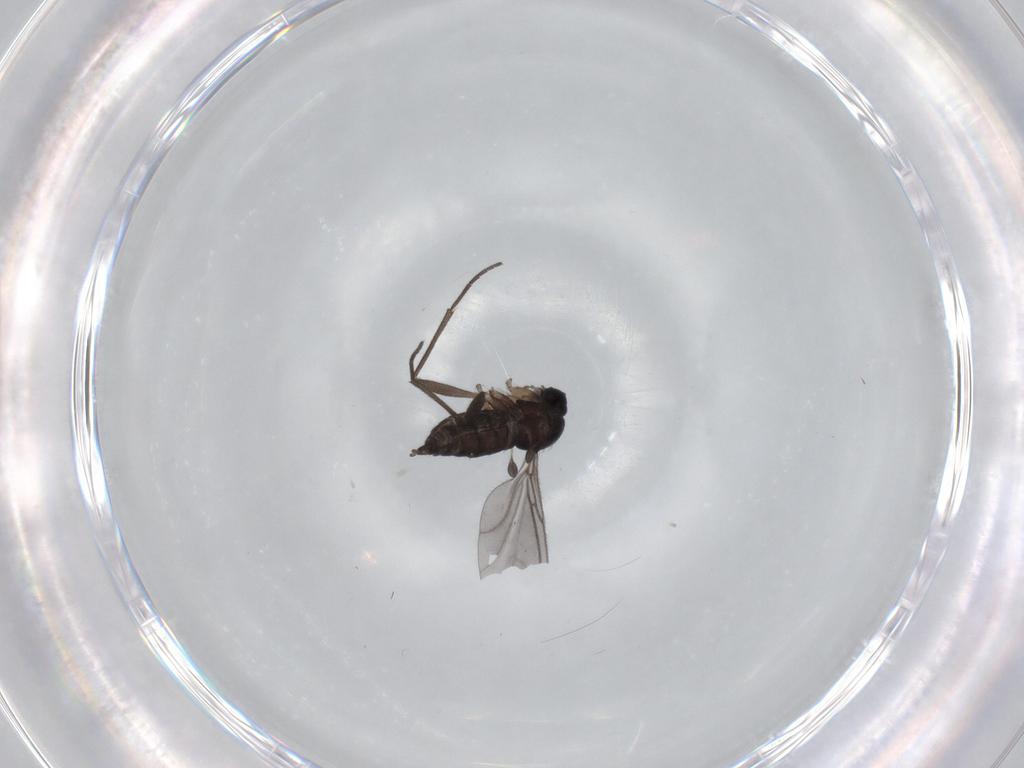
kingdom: Animalia
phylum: Arthropoda
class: Insecta
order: Diptera
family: Sciaridae
